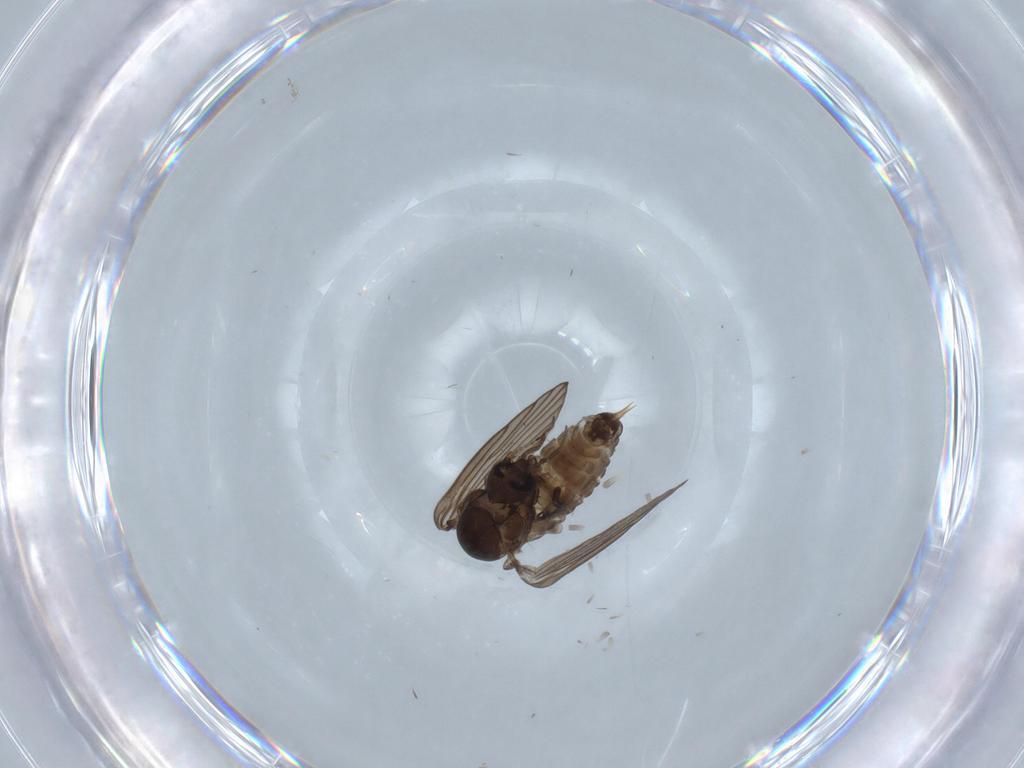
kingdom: Animalia
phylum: Arthropoda
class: Insecta
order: Diptera
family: Psychodidae
